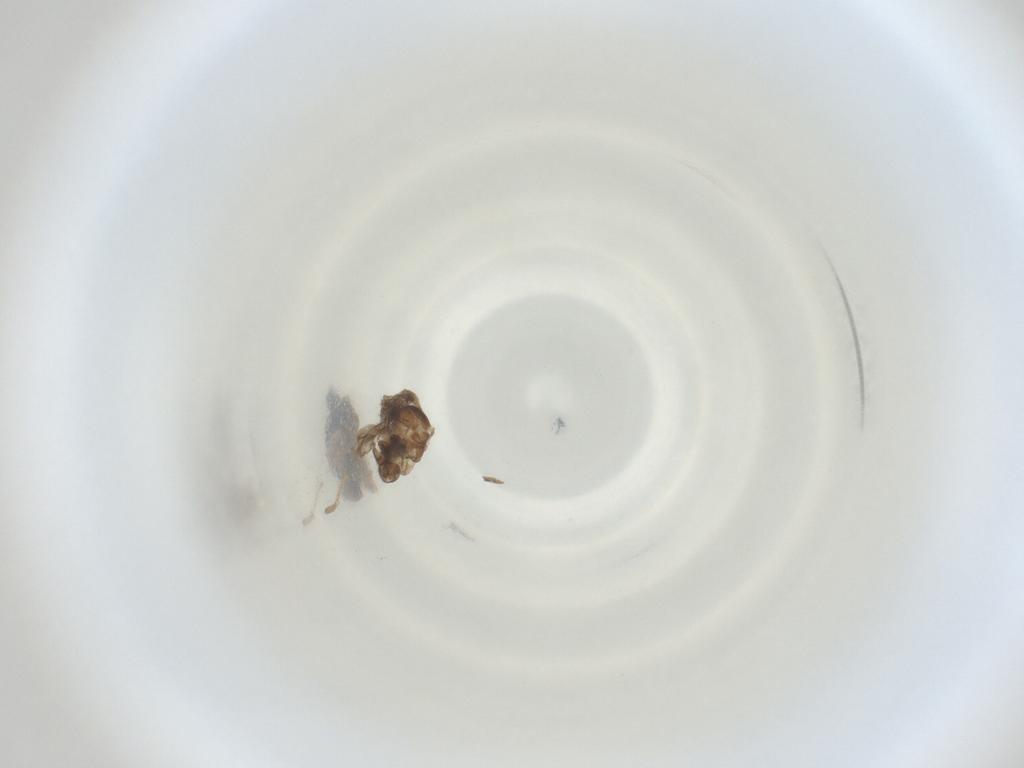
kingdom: Animalia
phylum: Arthropoda
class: Insecta
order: Diptera
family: Cecidomyiidae
